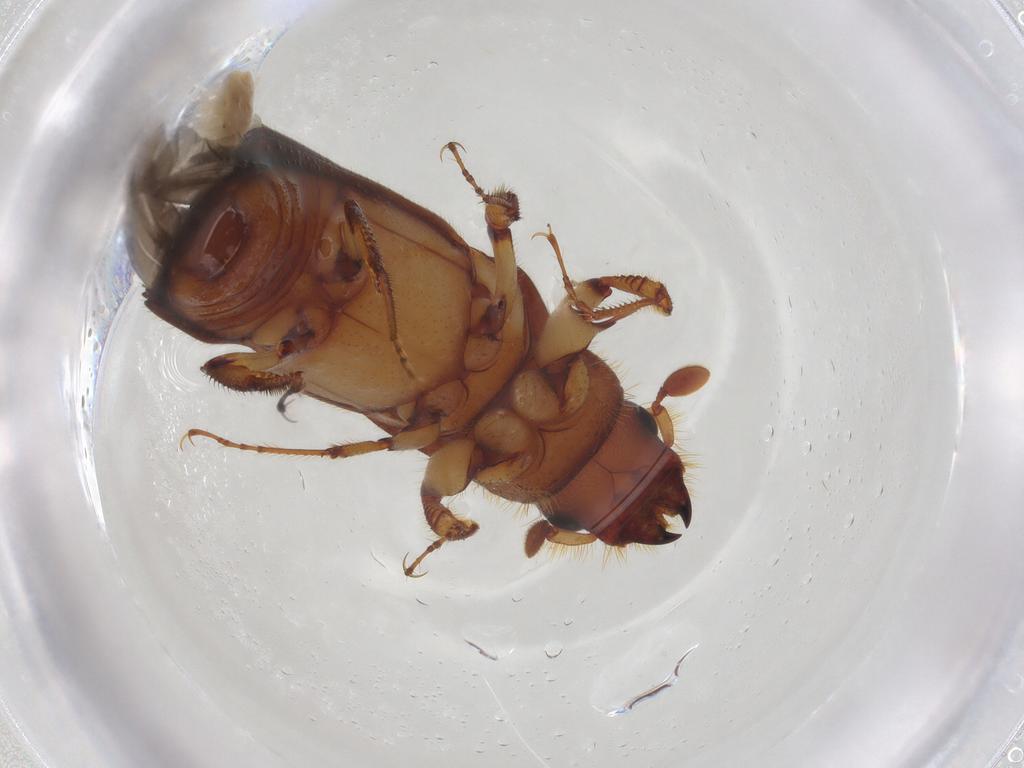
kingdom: Animalia
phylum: Arthropoda
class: Insecta
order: Coleoptera
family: Curculionidae
